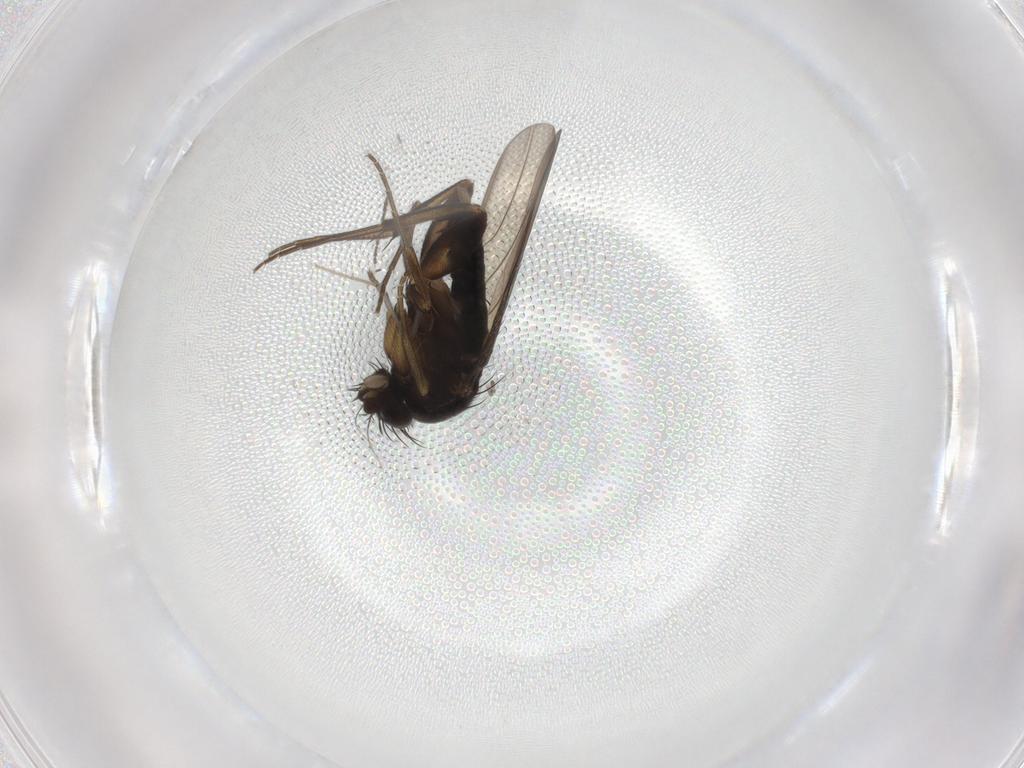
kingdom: Animalia
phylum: Arthropoda
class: Insecta
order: Diptera
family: Phoridae
